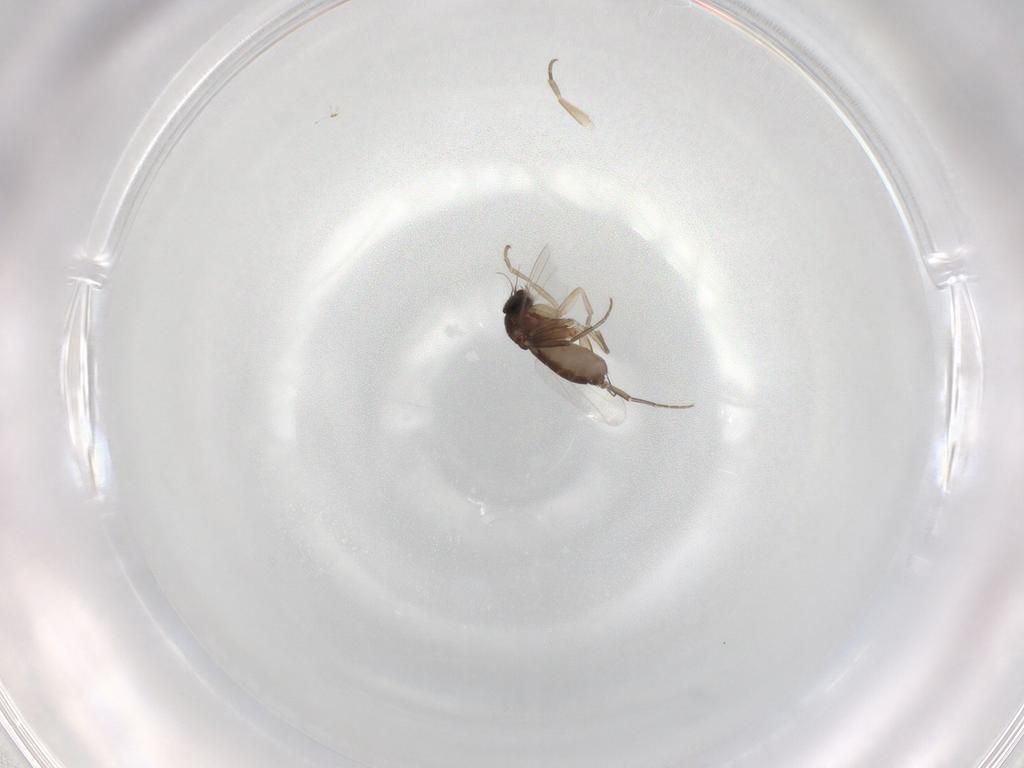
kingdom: Animalia
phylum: Arthropoda
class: Insecta
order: Diptera
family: Phoridae
